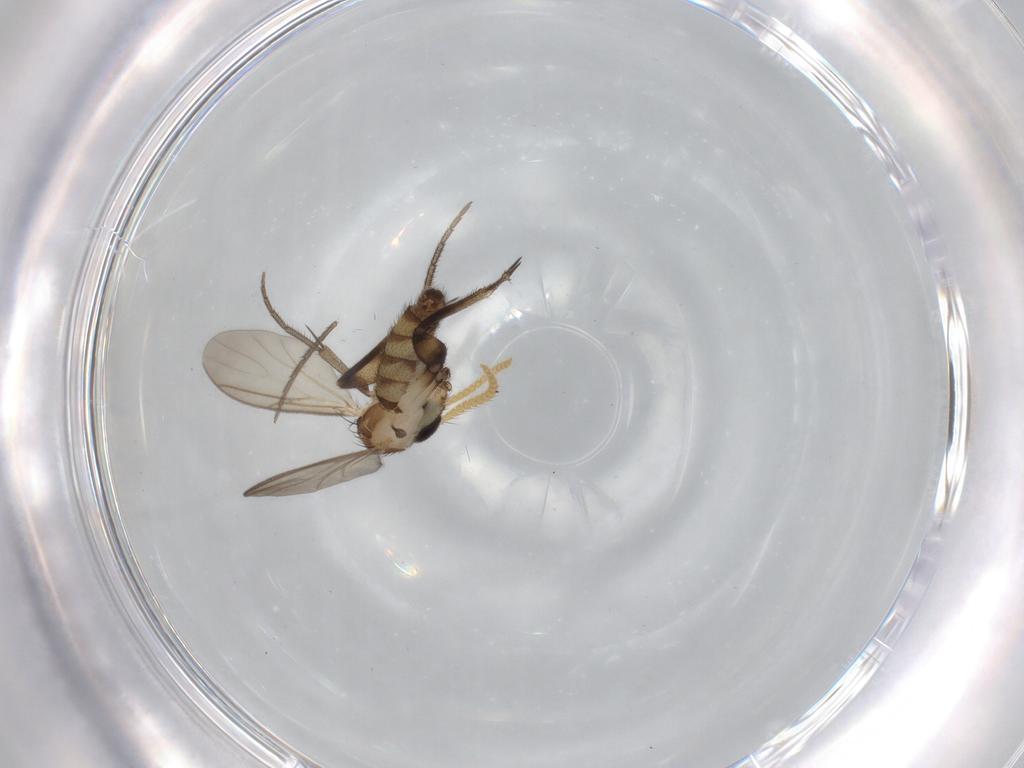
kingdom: Animalia
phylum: Arthropoda
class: Insecta
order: Diptera
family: Mycetophilidae
